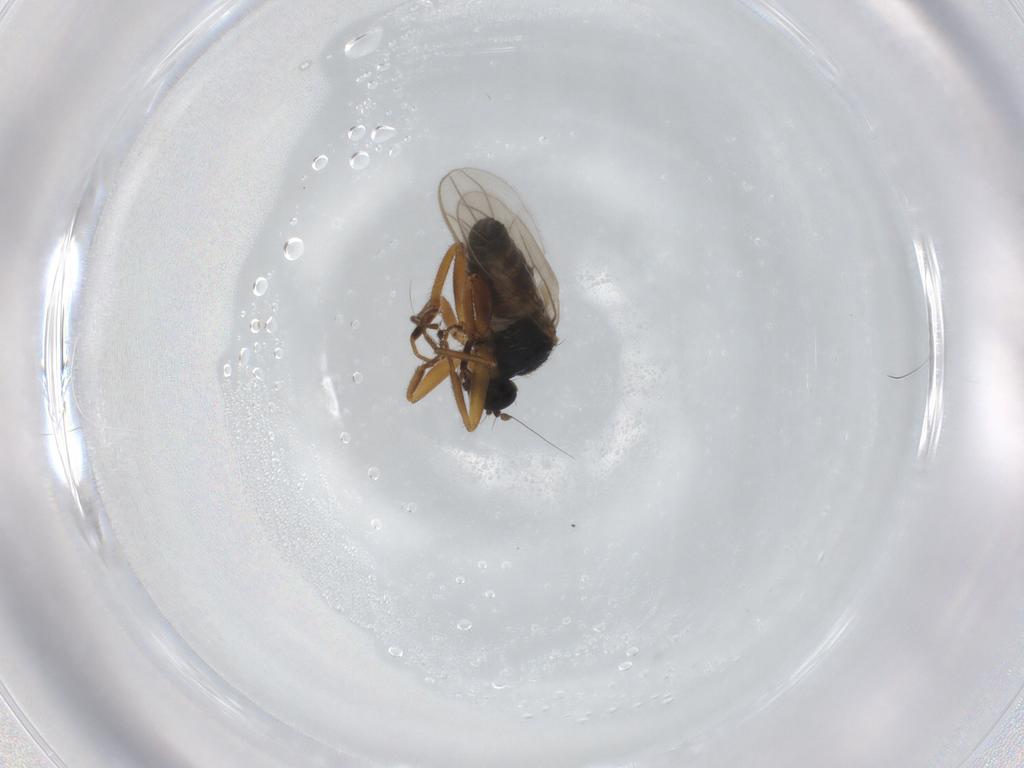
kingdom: Animalia
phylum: Arthropoda
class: Insecta
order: Diptera
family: Hybotidae
